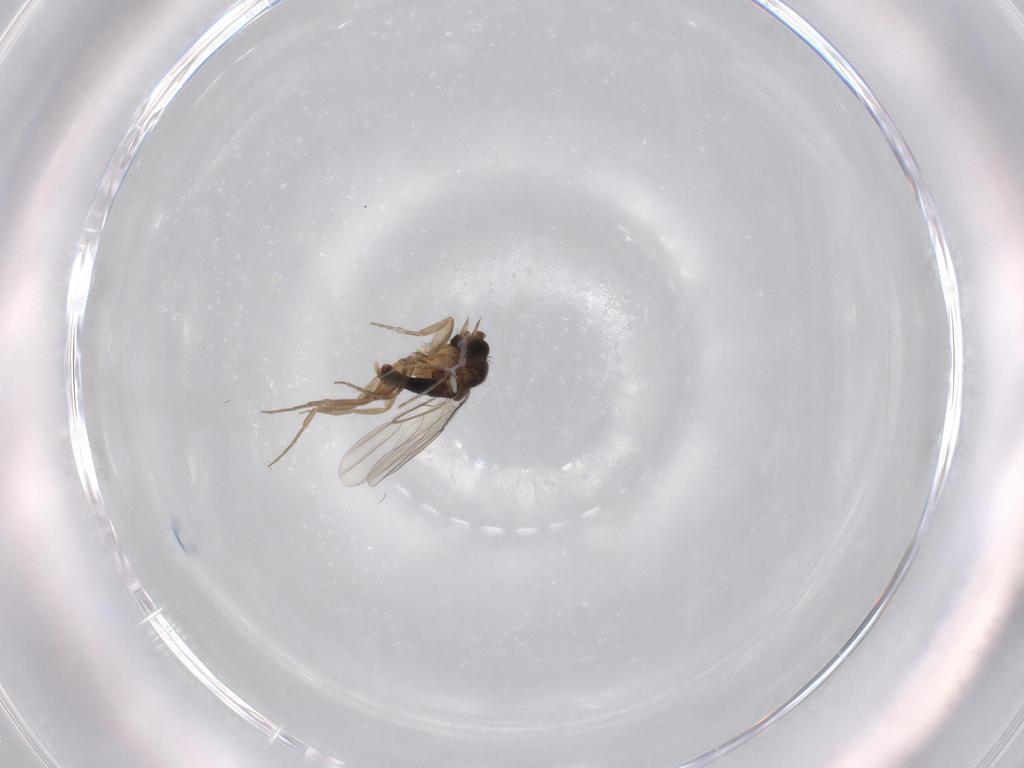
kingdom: Animalia
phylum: Arthropoda
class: Insecta
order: Diptera
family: Phoridae
